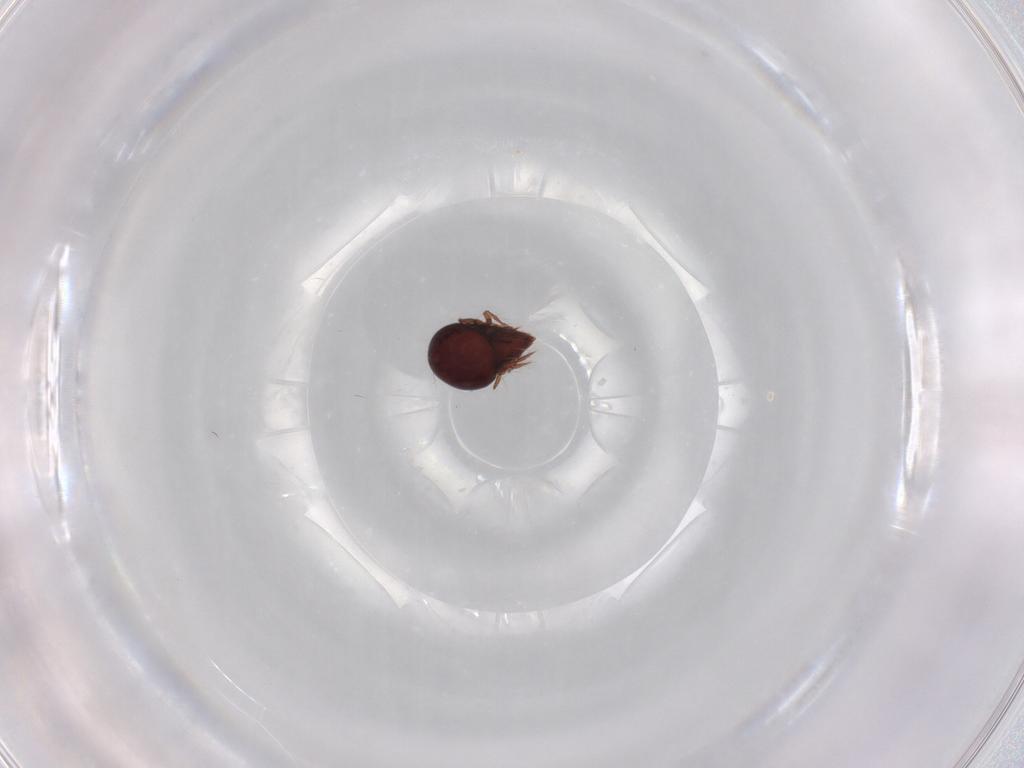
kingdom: Animalia
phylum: Arthropoda
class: Arachnida
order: Sarcoptiformes
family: Ceratoppiidae
